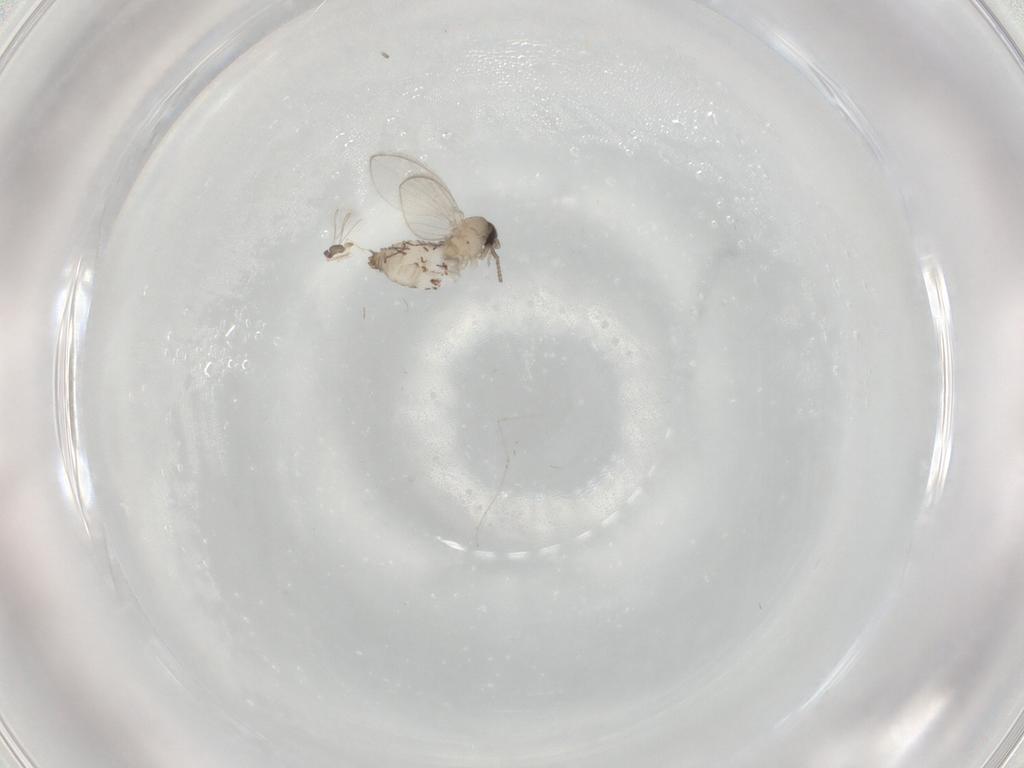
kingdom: Animalia
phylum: Arthropoda
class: Insecta
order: Diptera
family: Psychodidae
